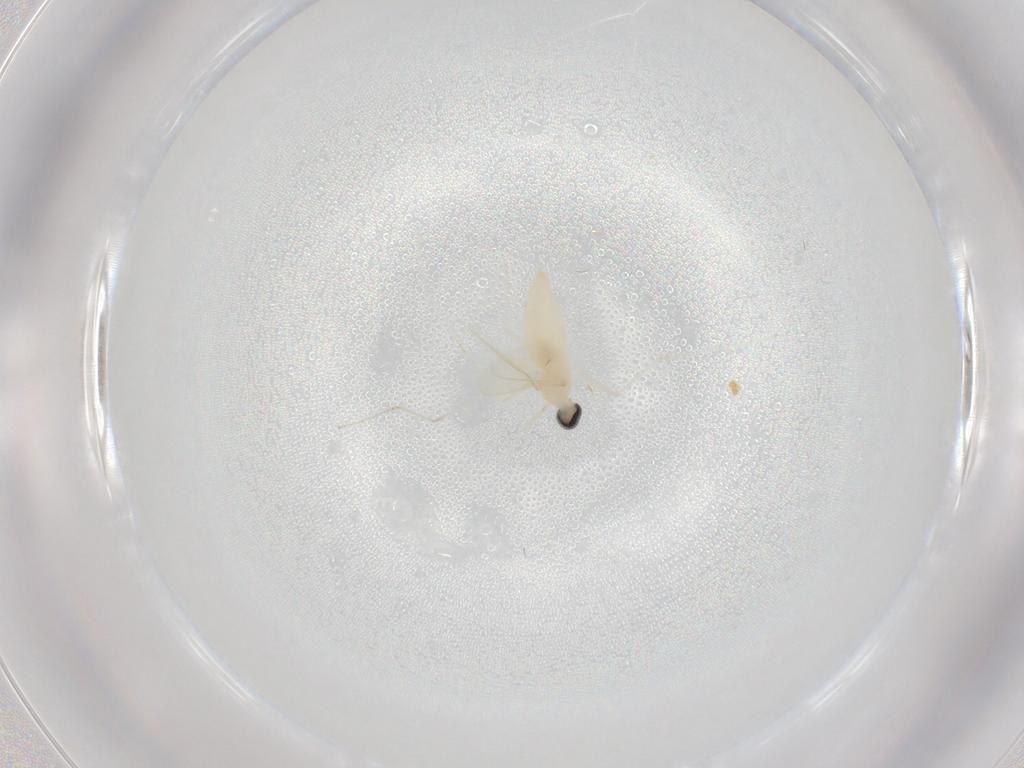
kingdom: Animalia
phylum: Arthropoda
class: Insecta
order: Diptera
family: Cecidomyiidae
